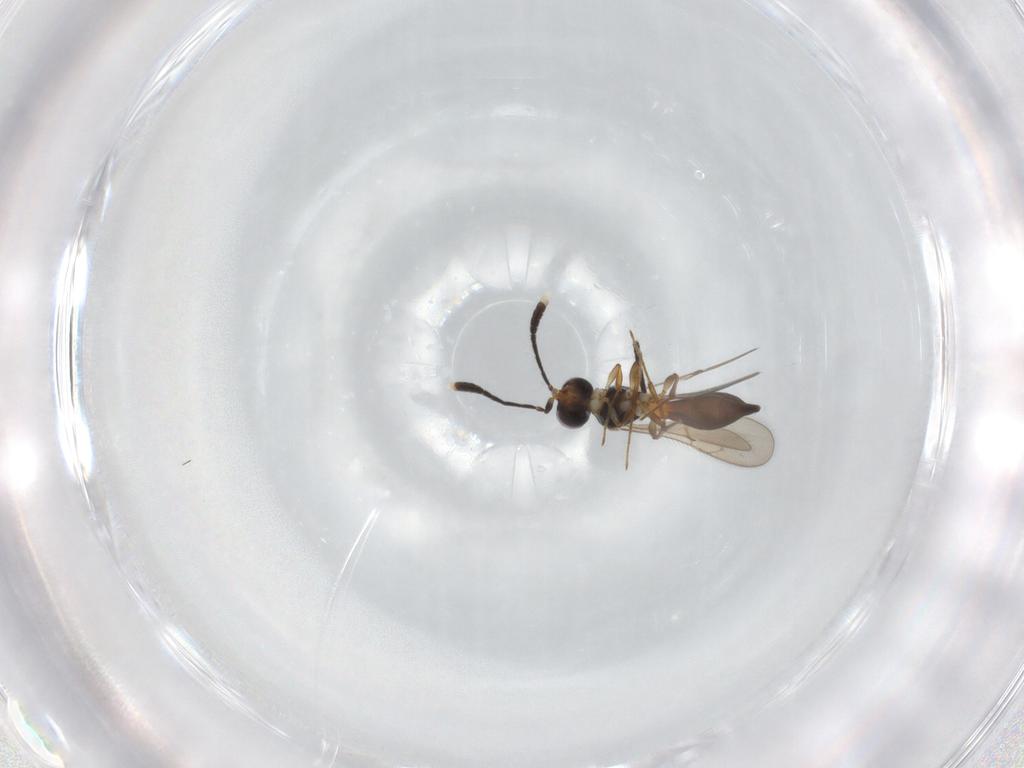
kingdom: Animalia
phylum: Arthropoda
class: Insecta
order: Hymenoptera
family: Scelionidae
